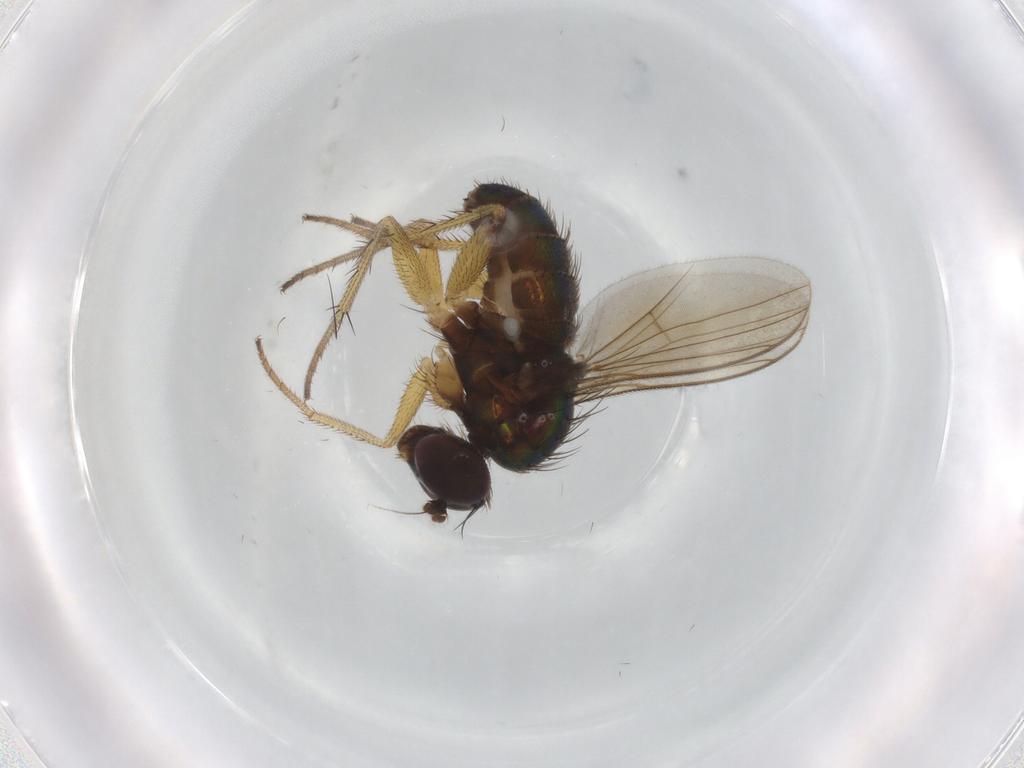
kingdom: Animalia
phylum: Arthropoda
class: Insecta
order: Diptera
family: Dolichopodidae
